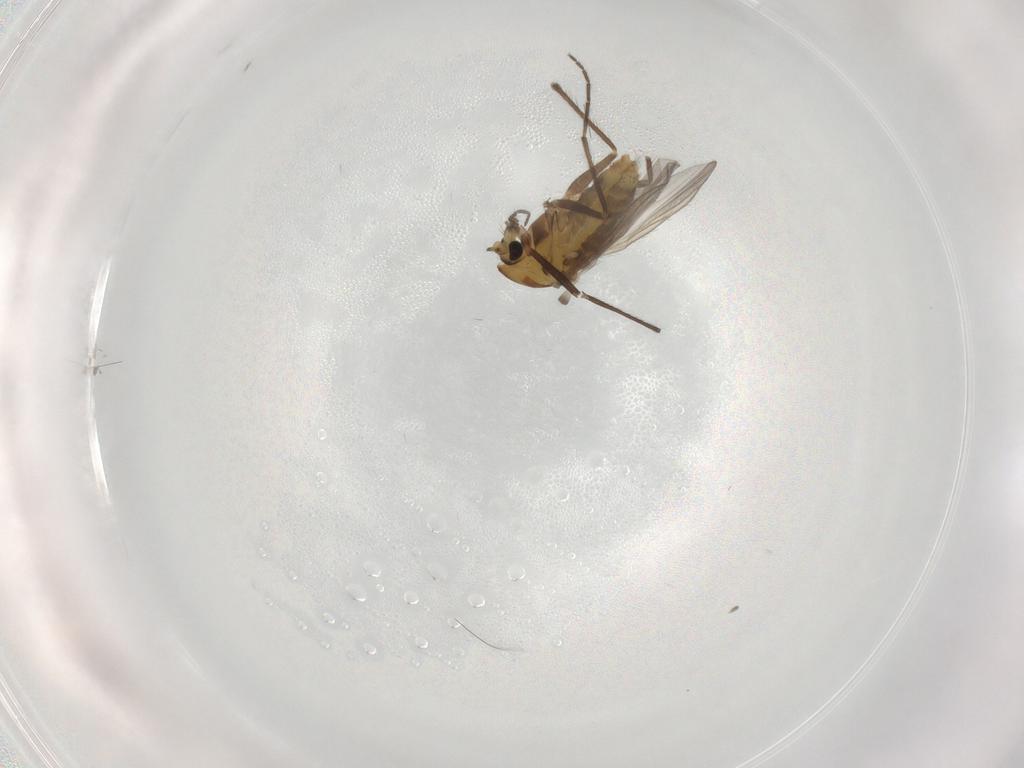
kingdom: Animalia
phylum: Arthropoda
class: Insecta
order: Diptera
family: Chironomidae
